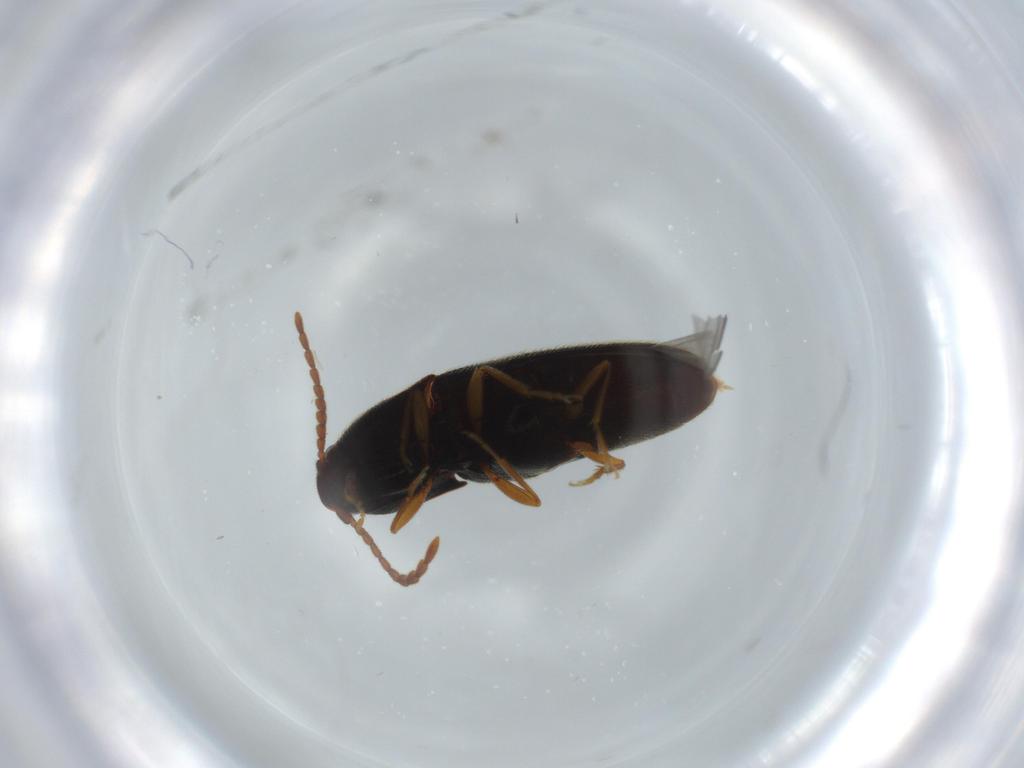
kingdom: Animalia
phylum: Arthropoda
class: Insecta
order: Coleoptera
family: Elateridae
